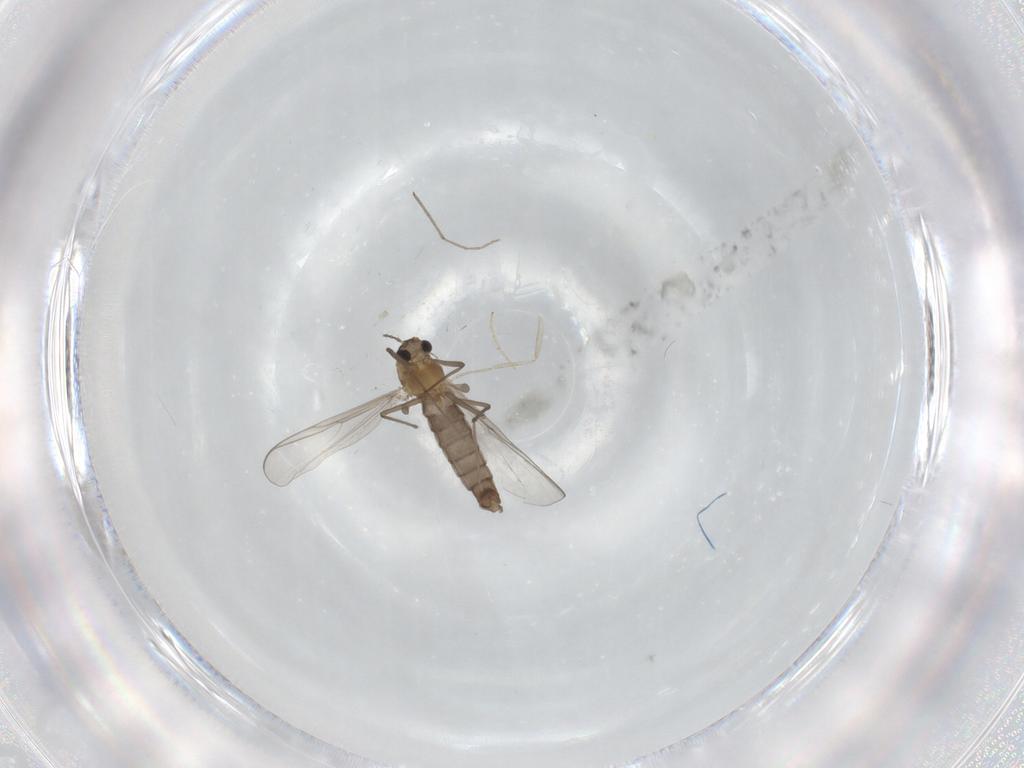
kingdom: Animalia
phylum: Arthropoda
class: Insecta
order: Diptera
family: Chironomidae
